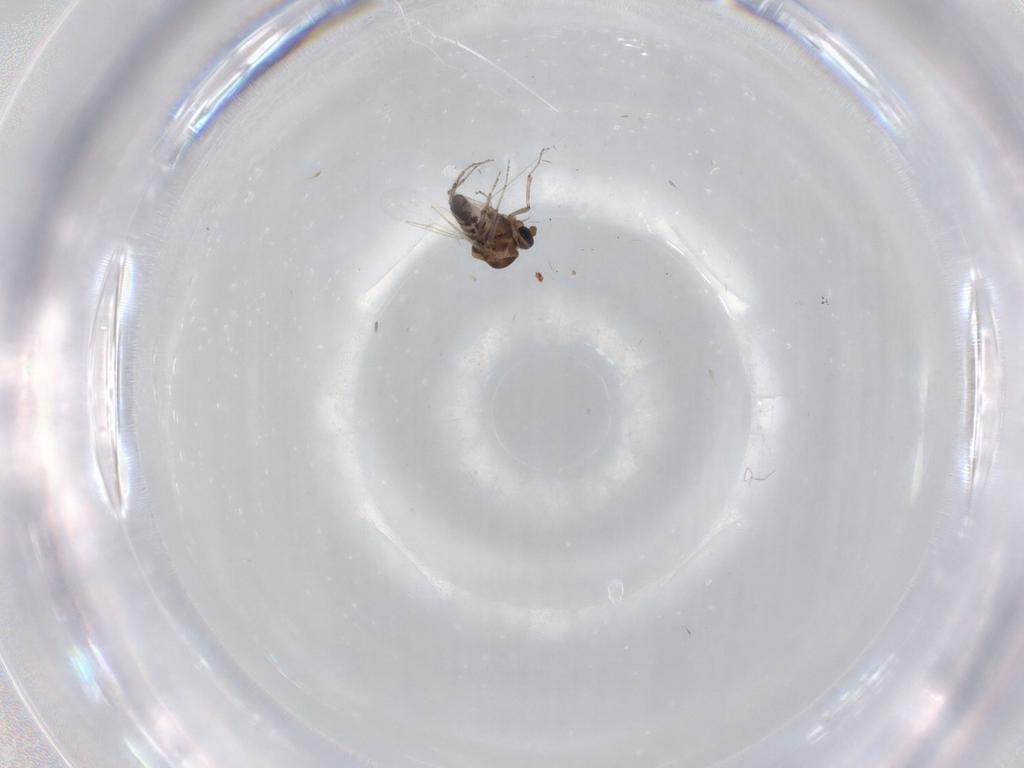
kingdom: Animalia
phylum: Arthropoda
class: Insecta
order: Diptera
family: Ceratopogonidae
